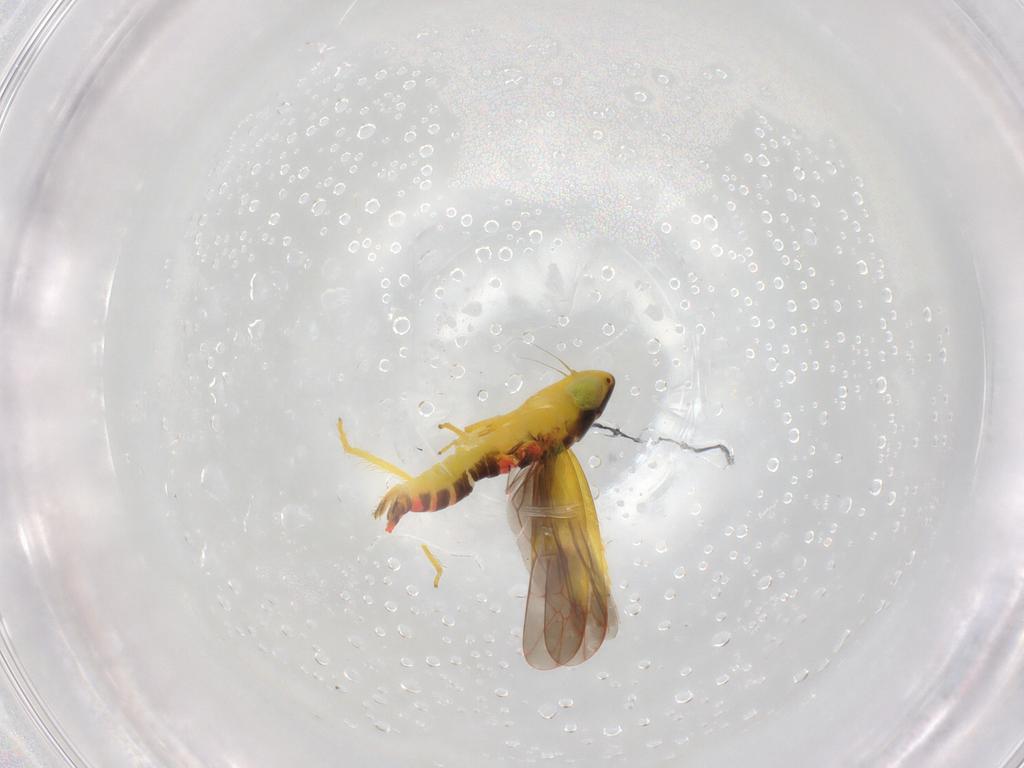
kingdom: Animalia
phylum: Arthropoda
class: Insecta
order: Hemiptera
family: Cicadellidae
